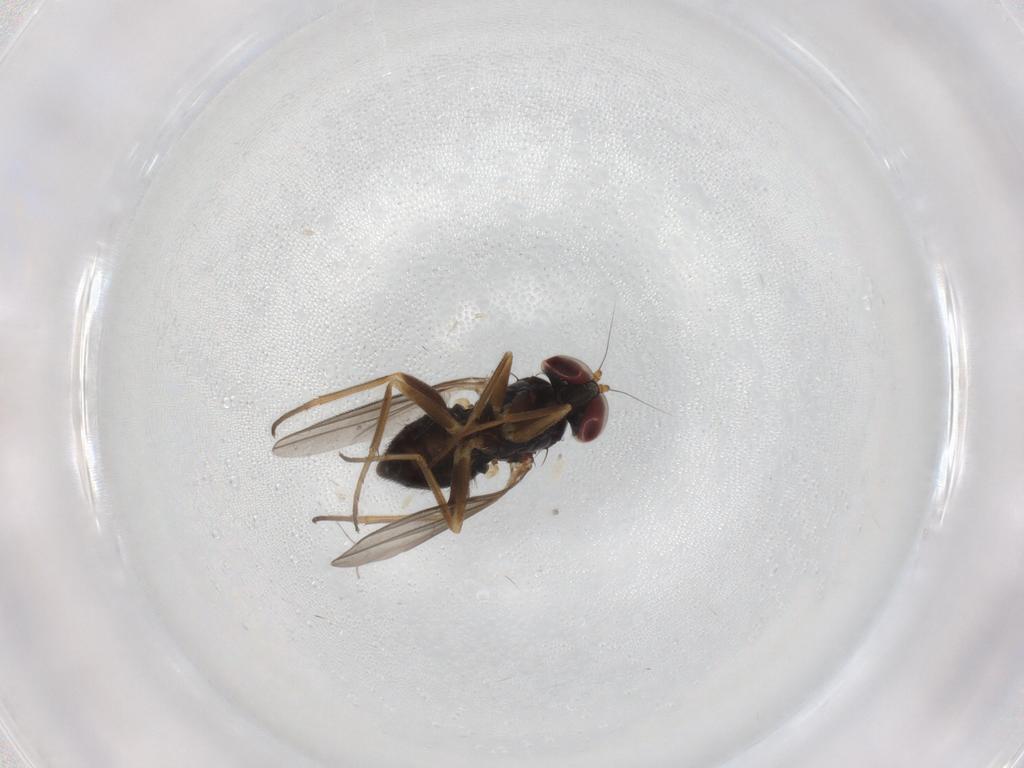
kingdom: Animalia
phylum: Arthropoda
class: Insecta
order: Diptera
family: Dolichopodidae
